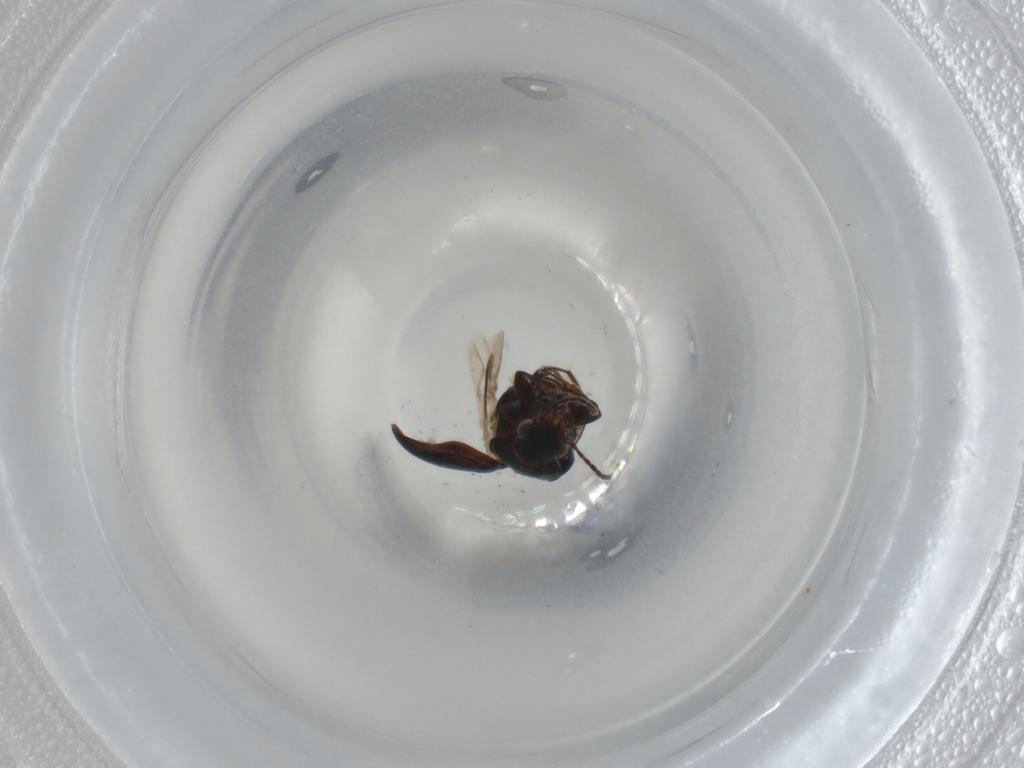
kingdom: Animalia
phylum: Arthropoda
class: Insecta
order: Coleoptera
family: Carabidae
